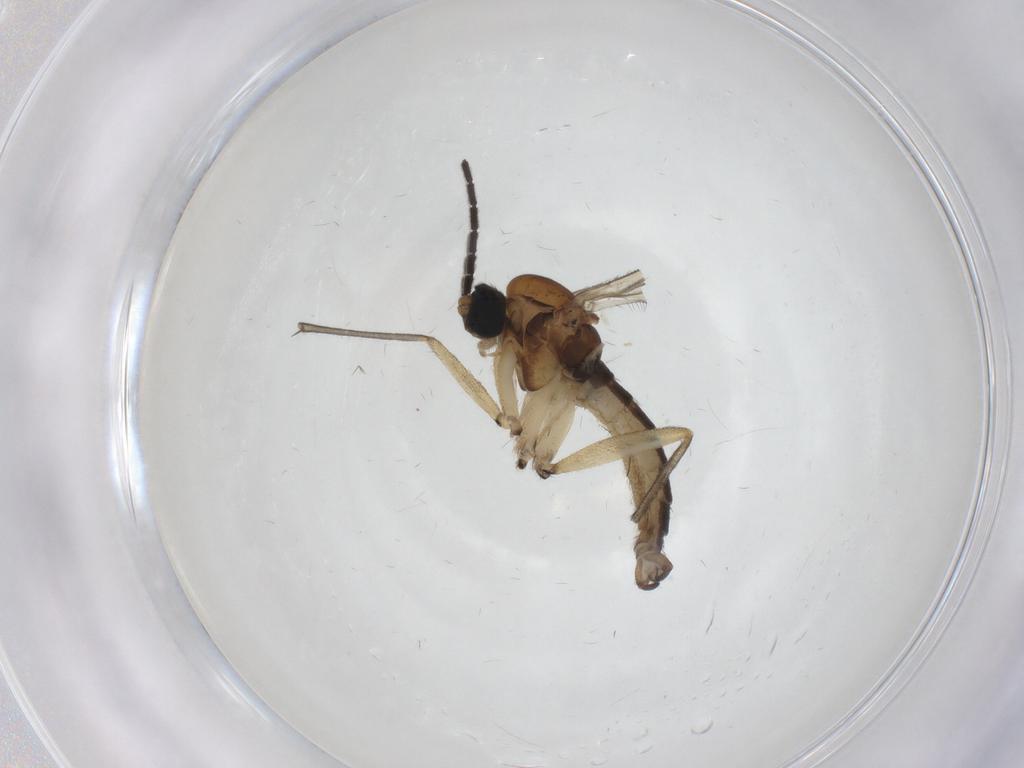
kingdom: Animalia
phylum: Arthropoda
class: Insecta
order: Diptera
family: Sciaridae
